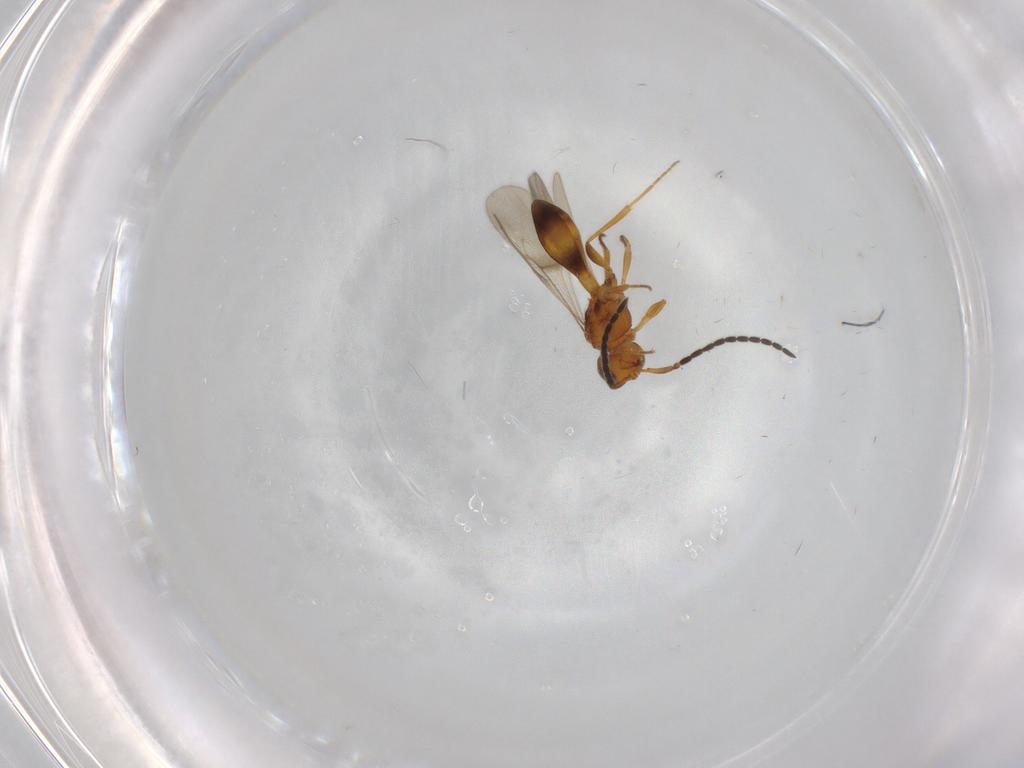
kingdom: Animalia
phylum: Arthropoda
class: Insecta
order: Hymenoptera
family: Scelionidae
